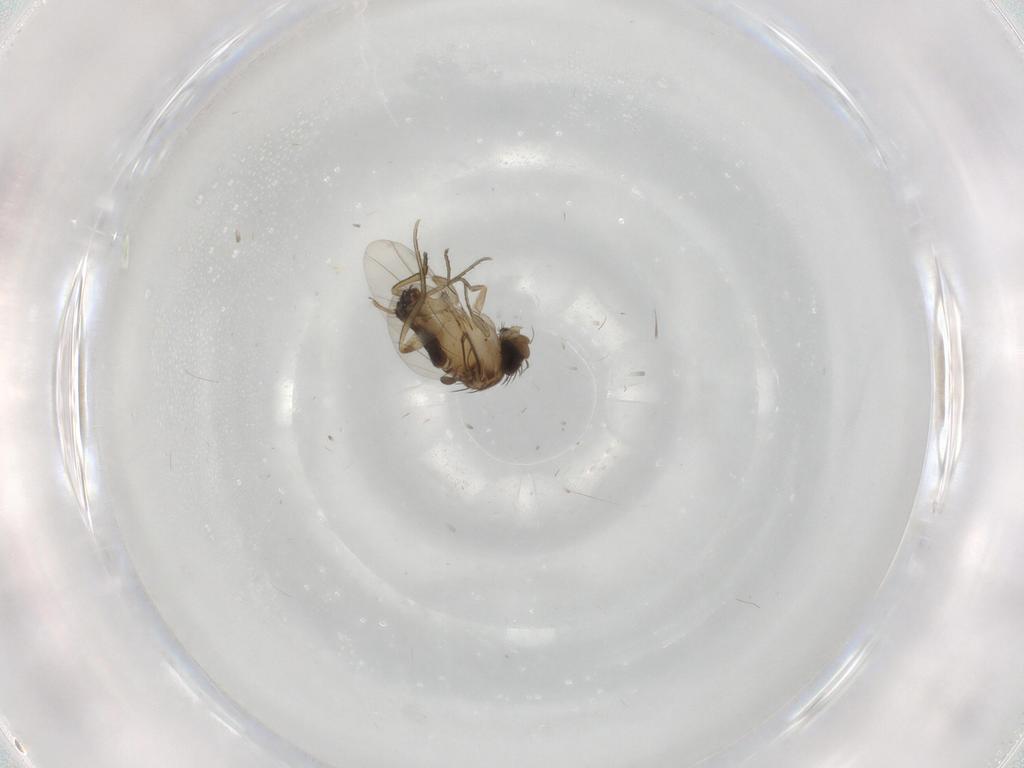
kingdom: Animalia
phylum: Arthropoda
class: Insecta
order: Diptera
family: Phoridae
